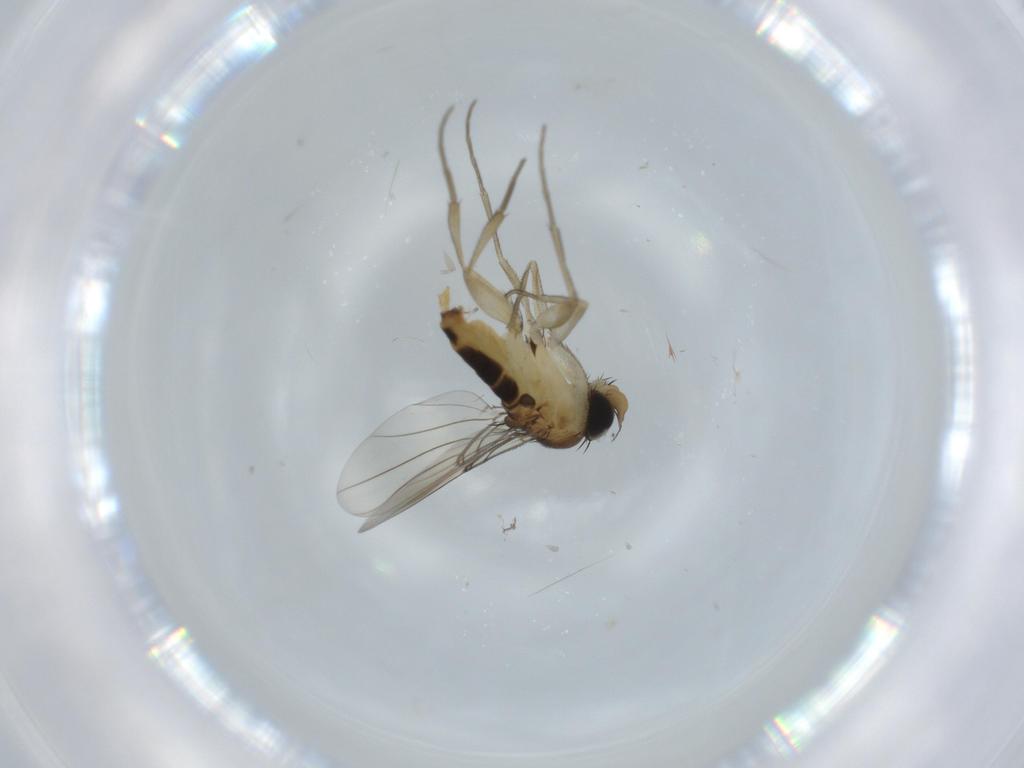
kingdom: Animalia
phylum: Arthropoda
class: Insecta
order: Diptera
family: Phoridae
